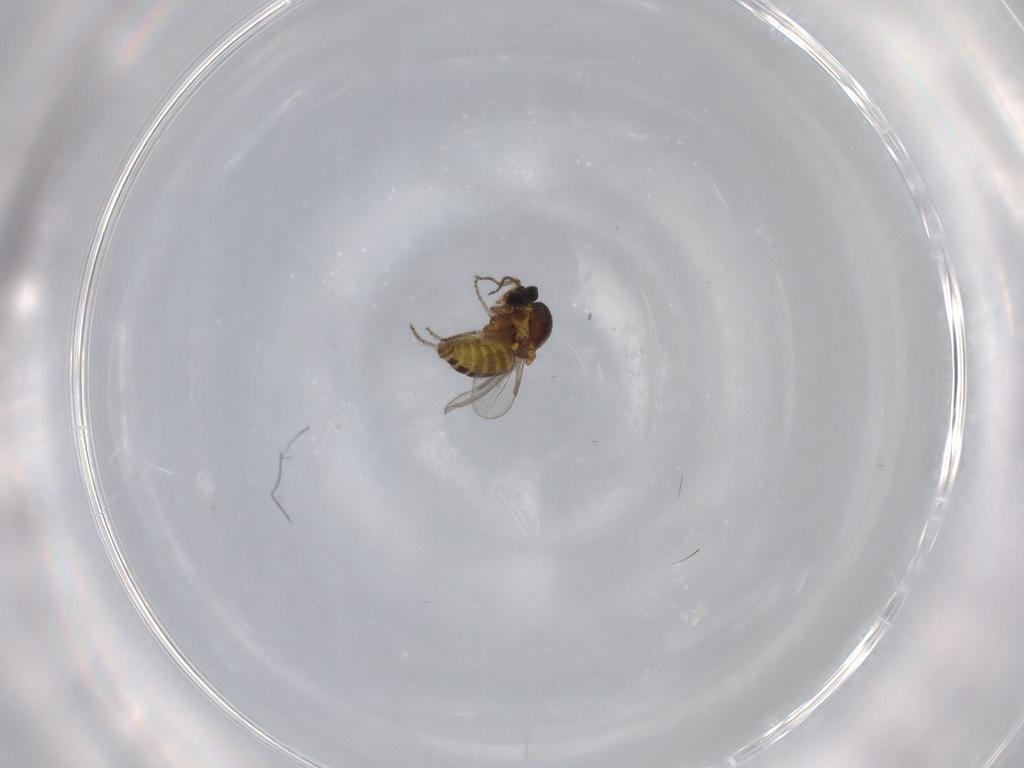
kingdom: Animalia
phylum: Arthropoda
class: Insecta
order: Diptera
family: Ceratopogonidae
